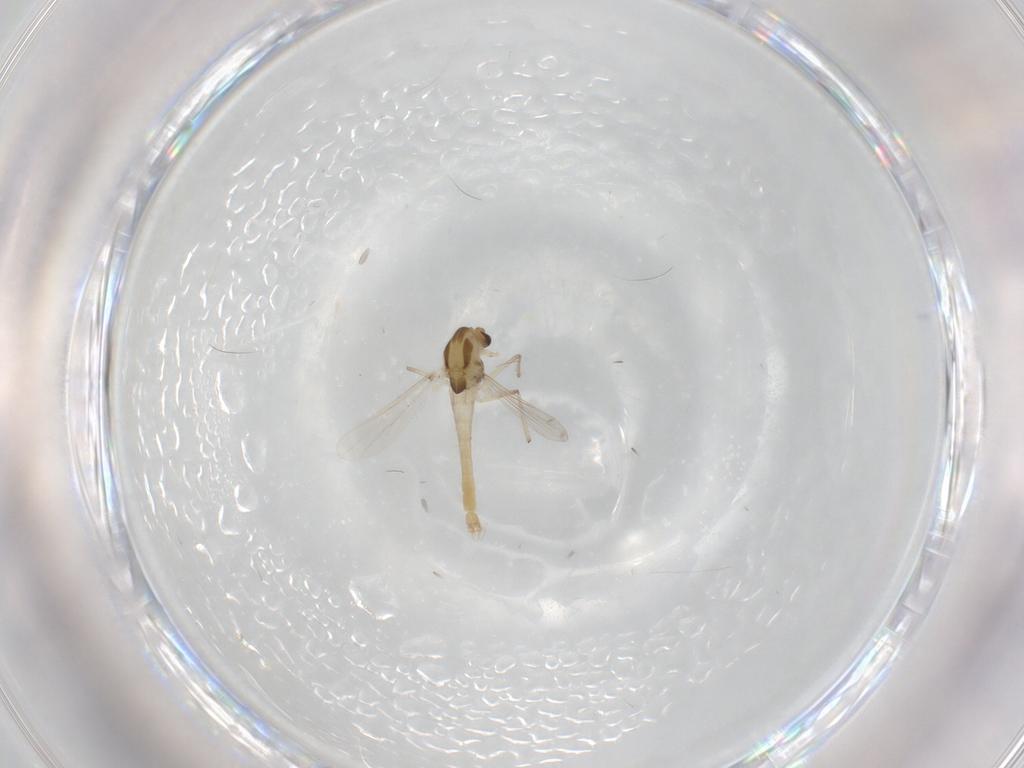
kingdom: Animalia
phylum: Arthropoda
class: Insecta
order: Diptera
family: Chironomidae
